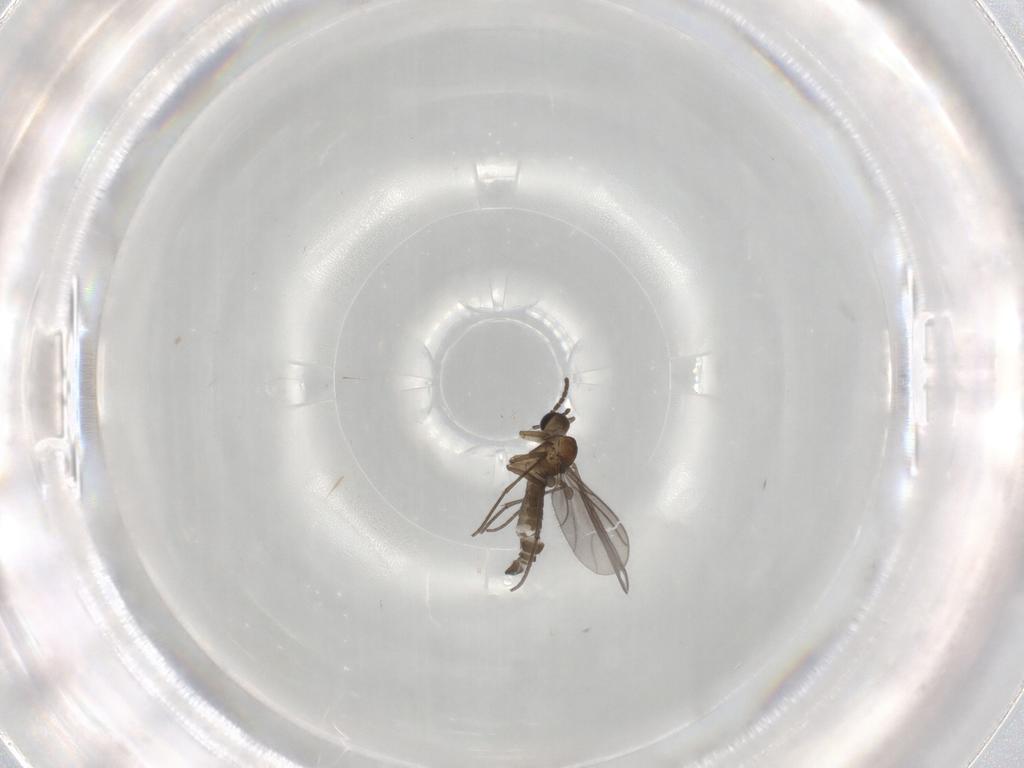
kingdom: Animalia
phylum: Arthropoda
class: Insecta
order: Diptera
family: Sciaridae
